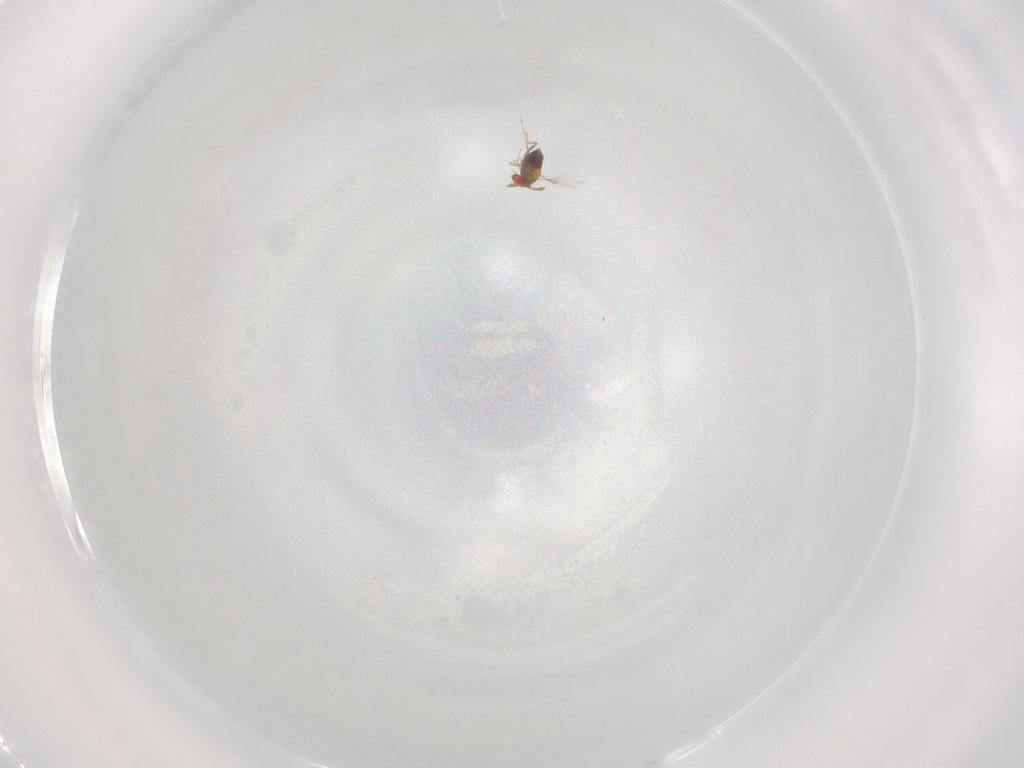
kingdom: Animalia
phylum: Arthropoda
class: Insecta
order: Hymenoptera
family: Trichogrammatidae
